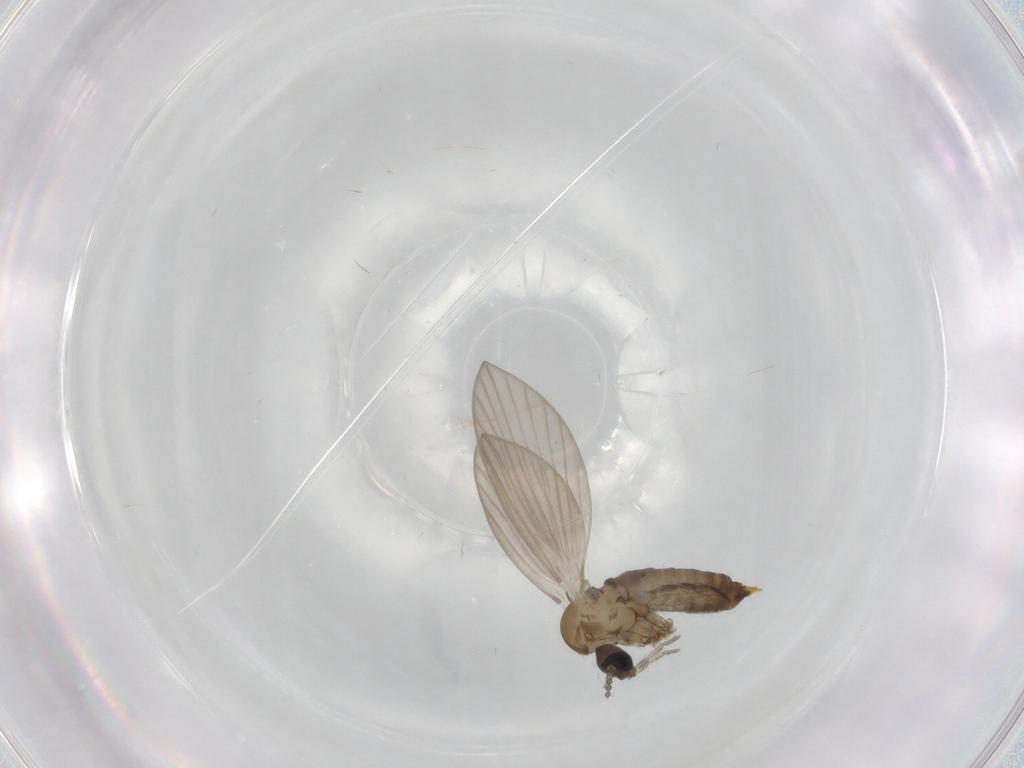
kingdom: Animalia
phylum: Arthropoda
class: Insecta
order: Diptera
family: Psychodidae
